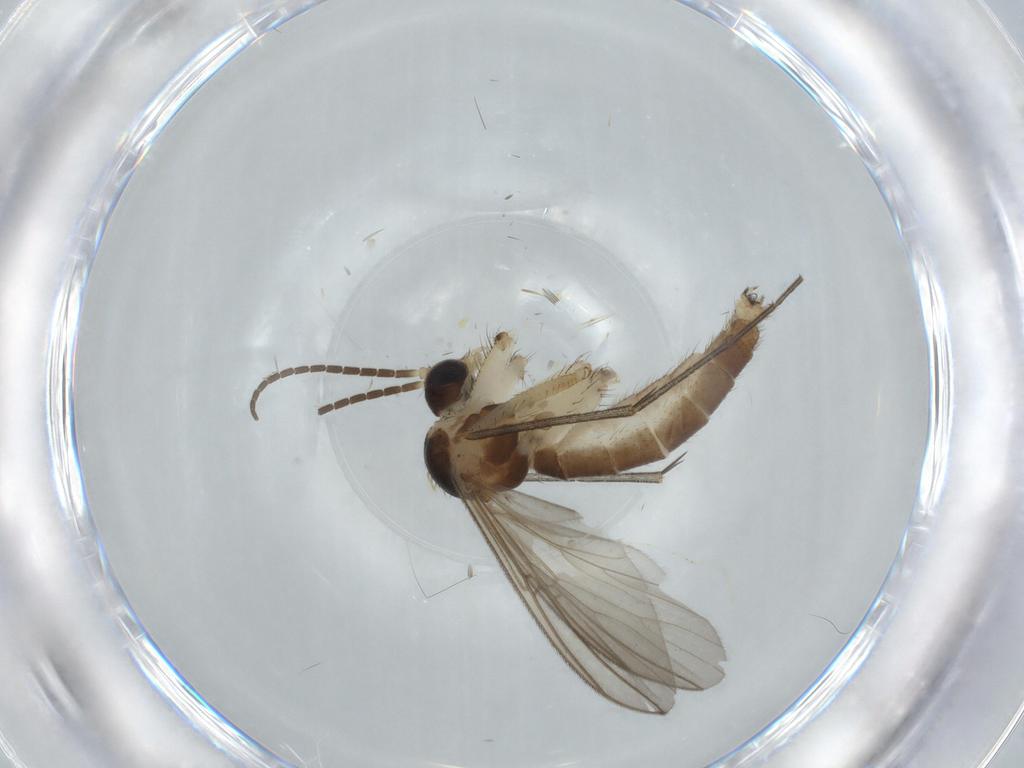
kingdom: Animalia
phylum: Arthropoda
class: Insecta
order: Diptera
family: Mycetophilidae
